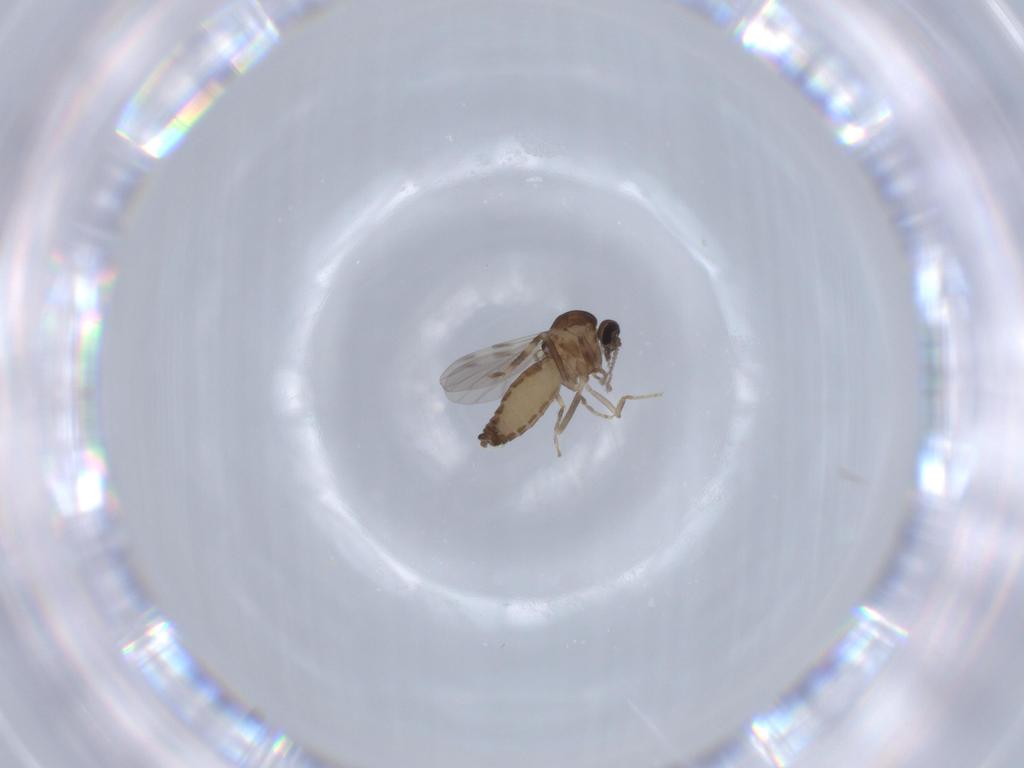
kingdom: Animalia
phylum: Arthropoda
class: Insecta
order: Diptera
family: Ceratopogonidae
